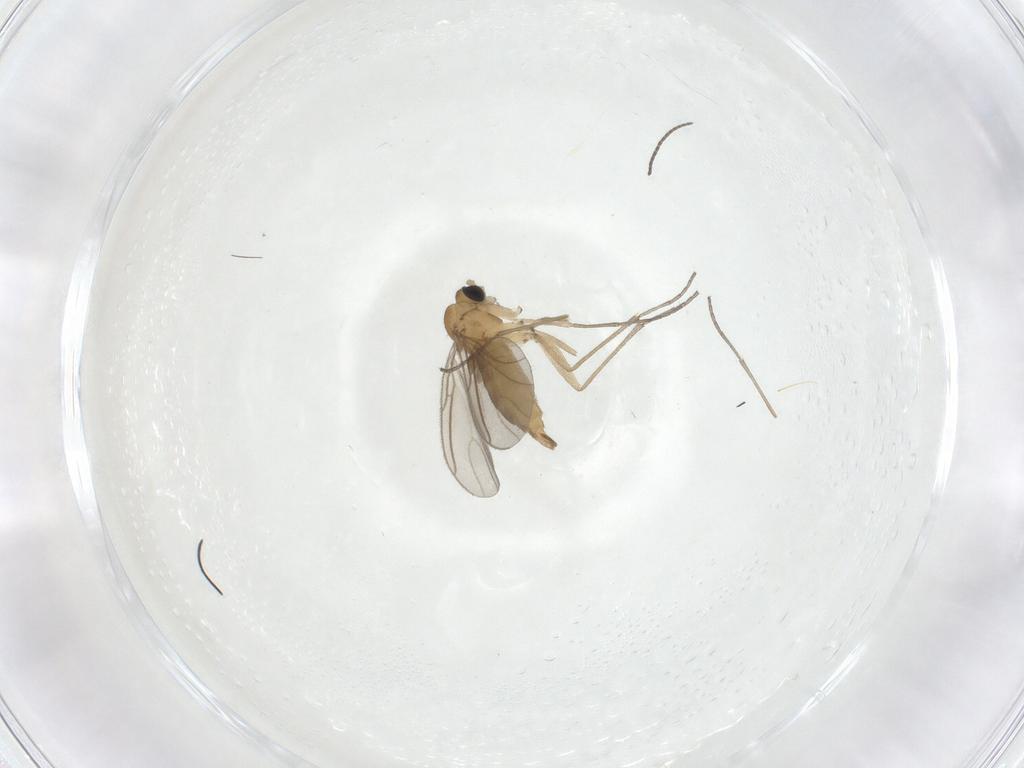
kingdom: Animalia
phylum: Arthropoda
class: Insecta
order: Diptera
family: Sciaridae
